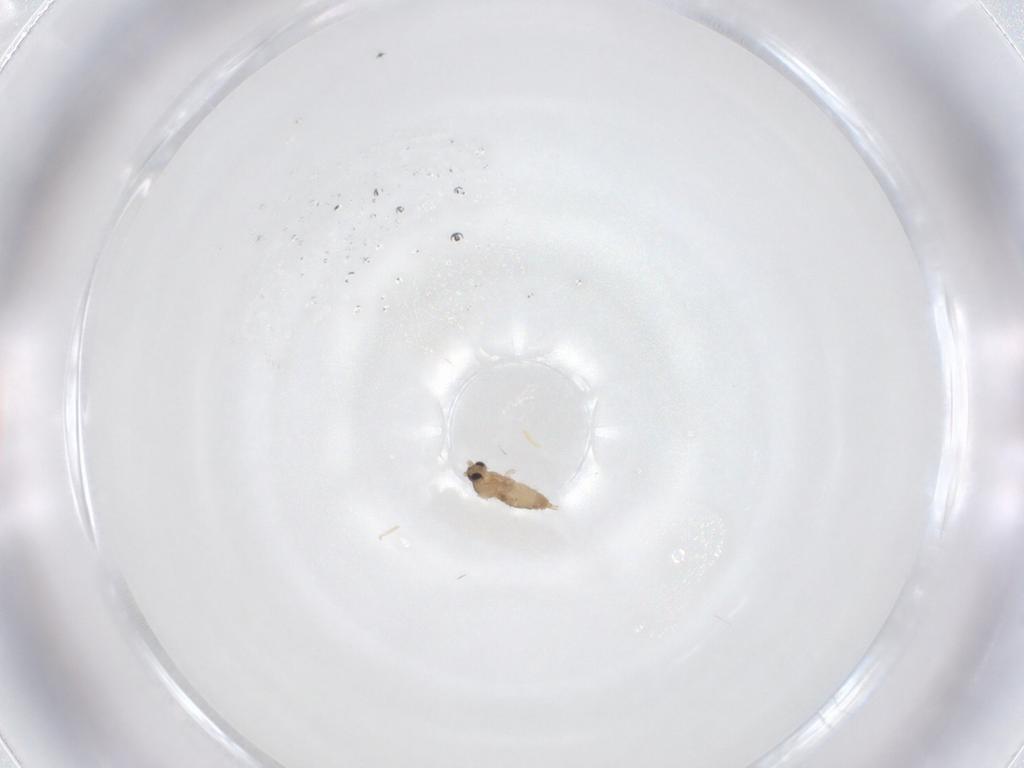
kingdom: Animalia
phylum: Arthropoda
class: Insecta
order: Diptera
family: Cecidomyiidae
